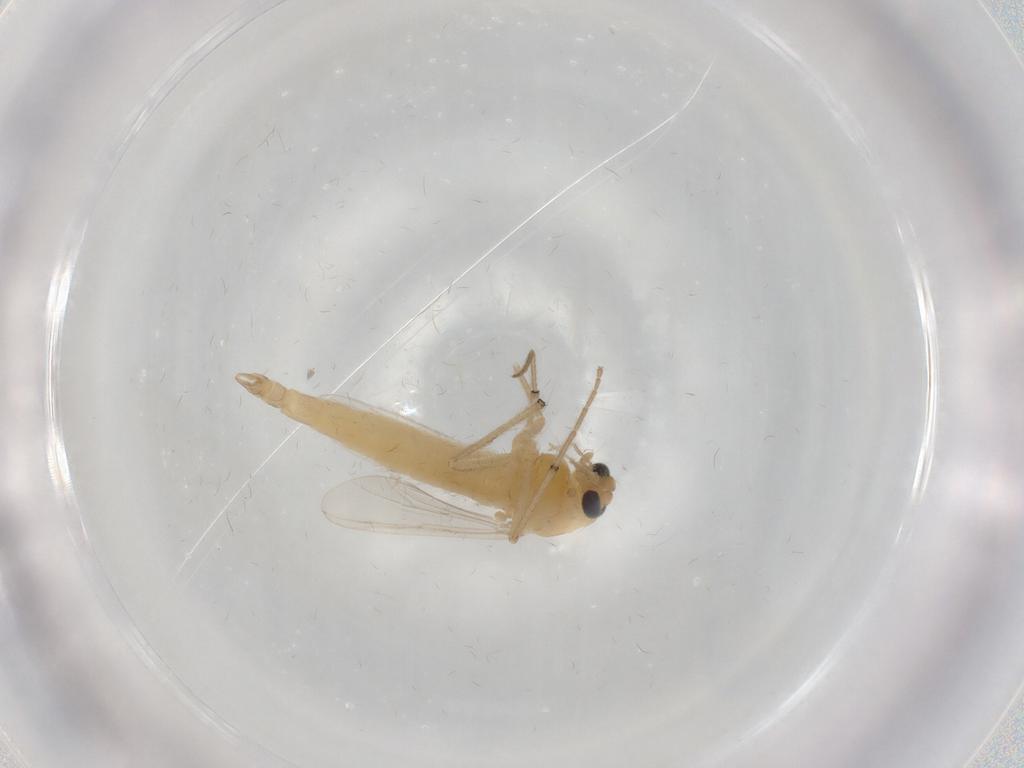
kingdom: Animalia
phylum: Arthropoda
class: Insecta
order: Diptera
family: Chironomidae
